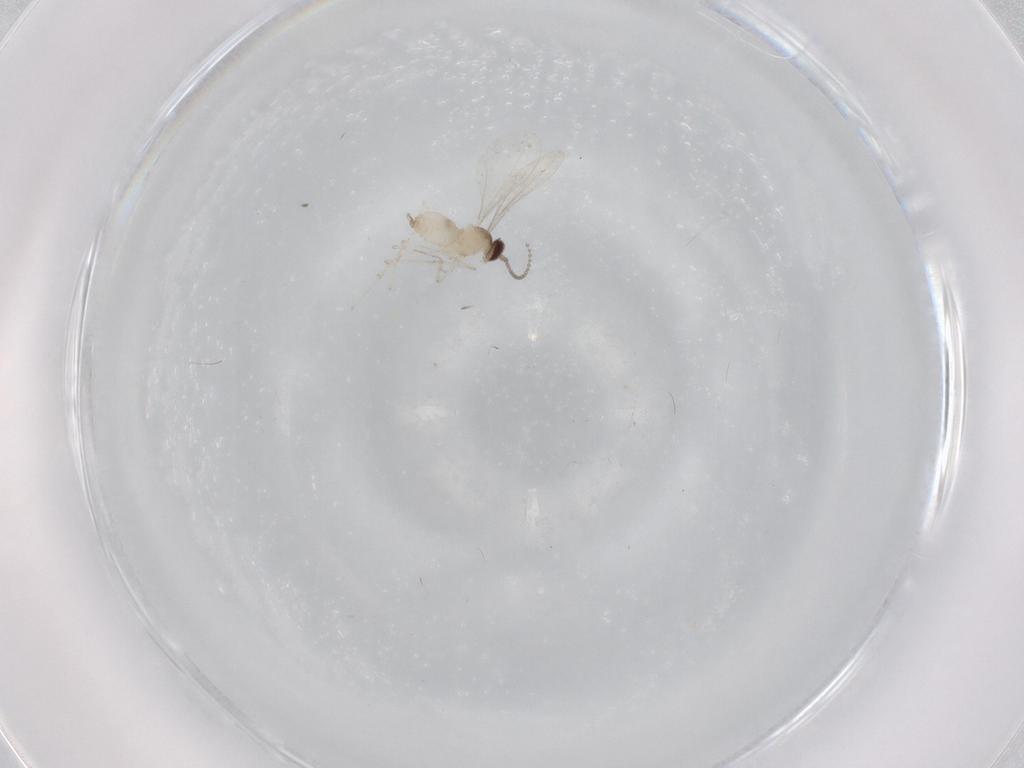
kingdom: Animalia
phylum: Arthropoda
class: Insecta
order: Diptera
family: Cecidomyiidae
